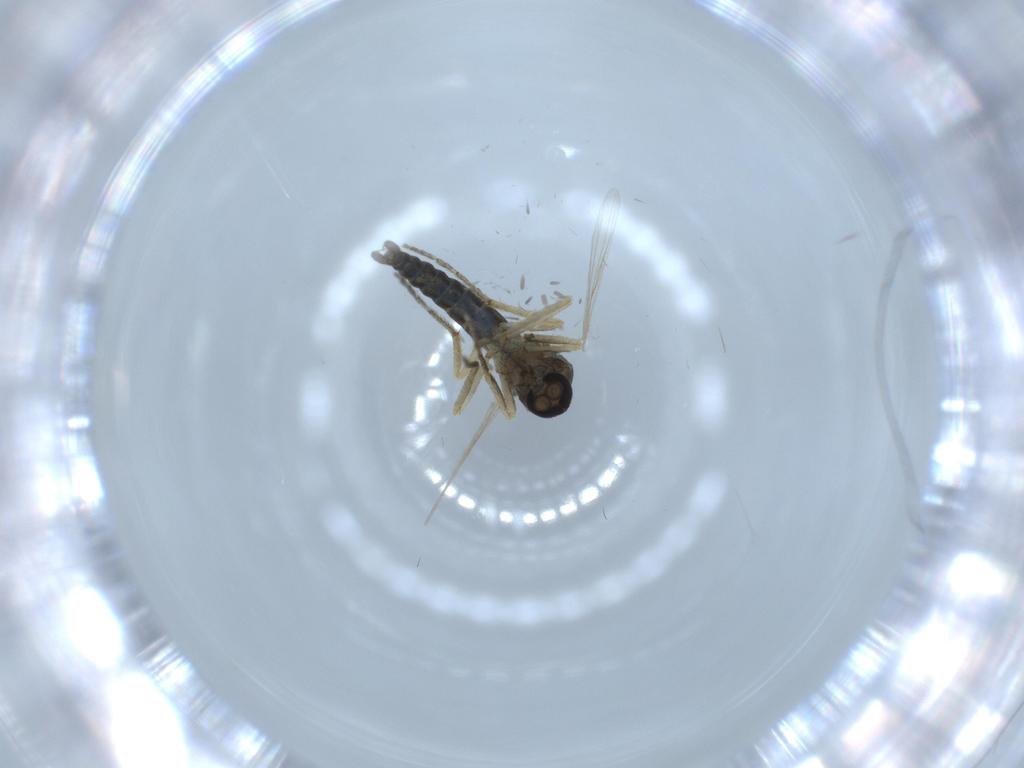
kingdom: Animalia
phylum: Arthropoda
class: Insecta
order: Diptera
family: Ceratopogonidae
